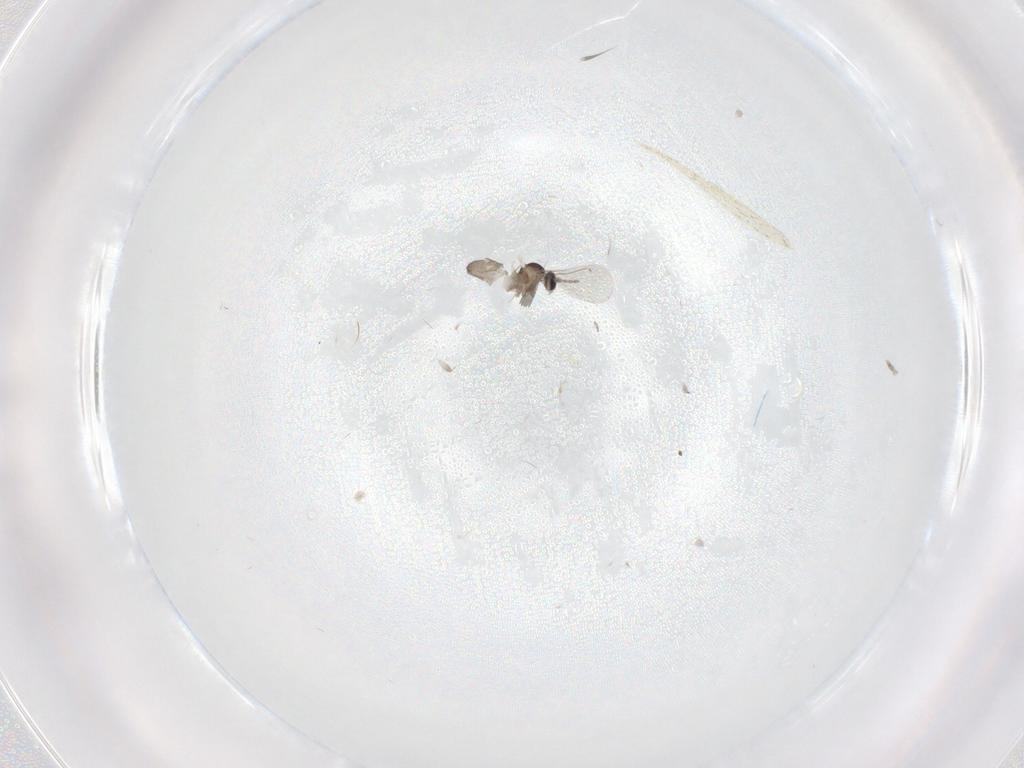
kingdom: Animalia
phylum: Arthropoda
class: Insecta
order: Diptera
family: Cecidomyiidae
